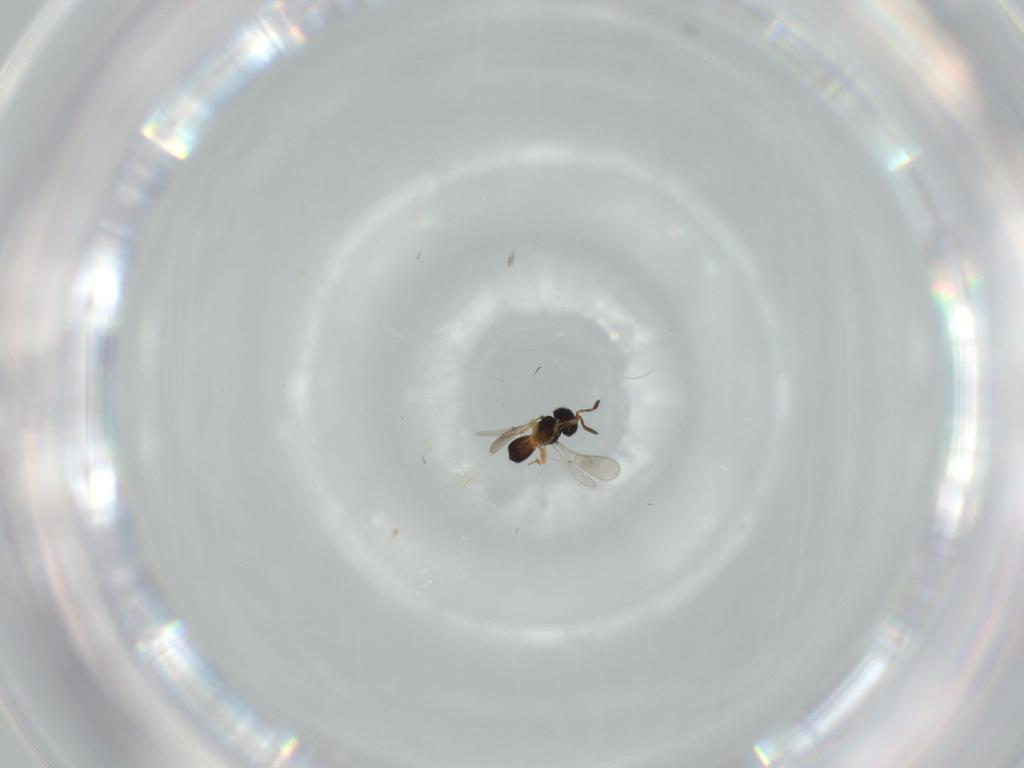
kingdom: Animalia
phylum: Arthropoda
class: Insecta
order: Hymenoptera
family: Scelionidae
